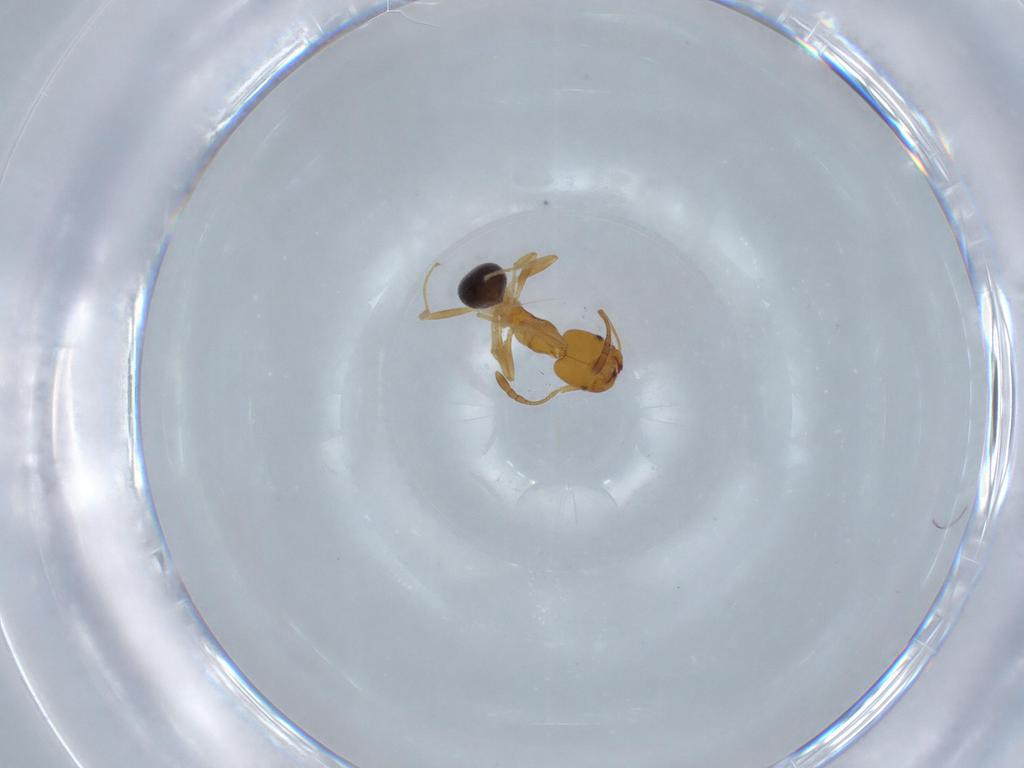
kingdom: Animalia
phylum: Arthropoda
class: Insecta
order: Hymenoptera
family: Formicidae
